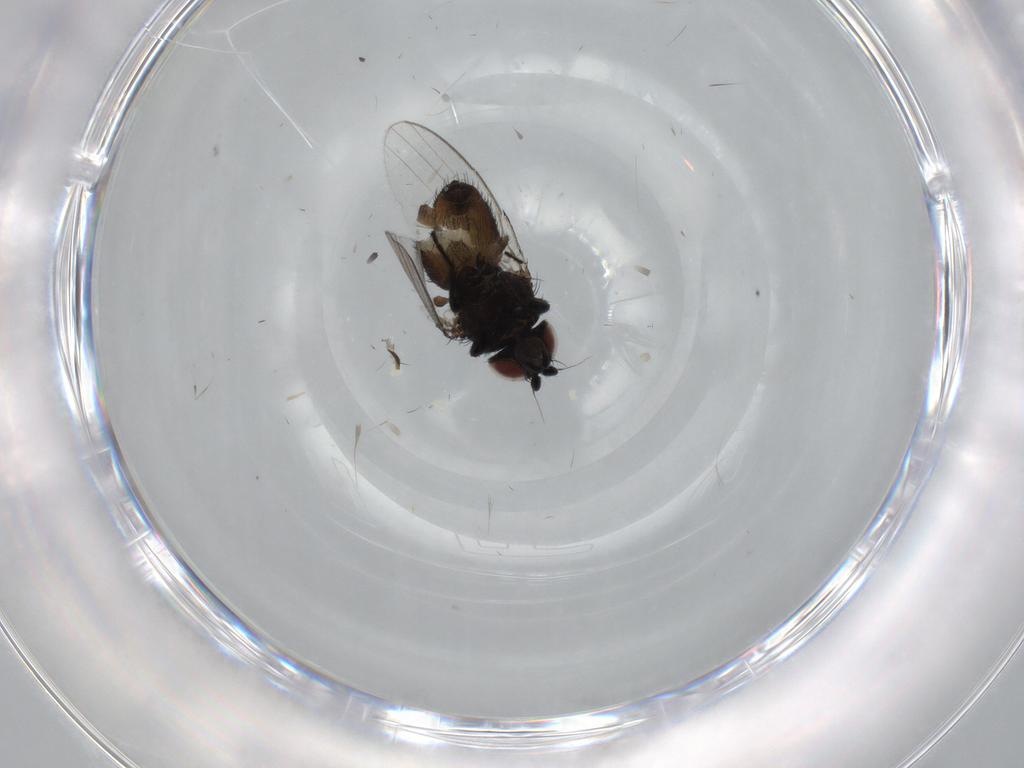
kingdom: Animalia
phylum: Arthropoda
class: Insecta
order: Diptera
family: Milichiidae
